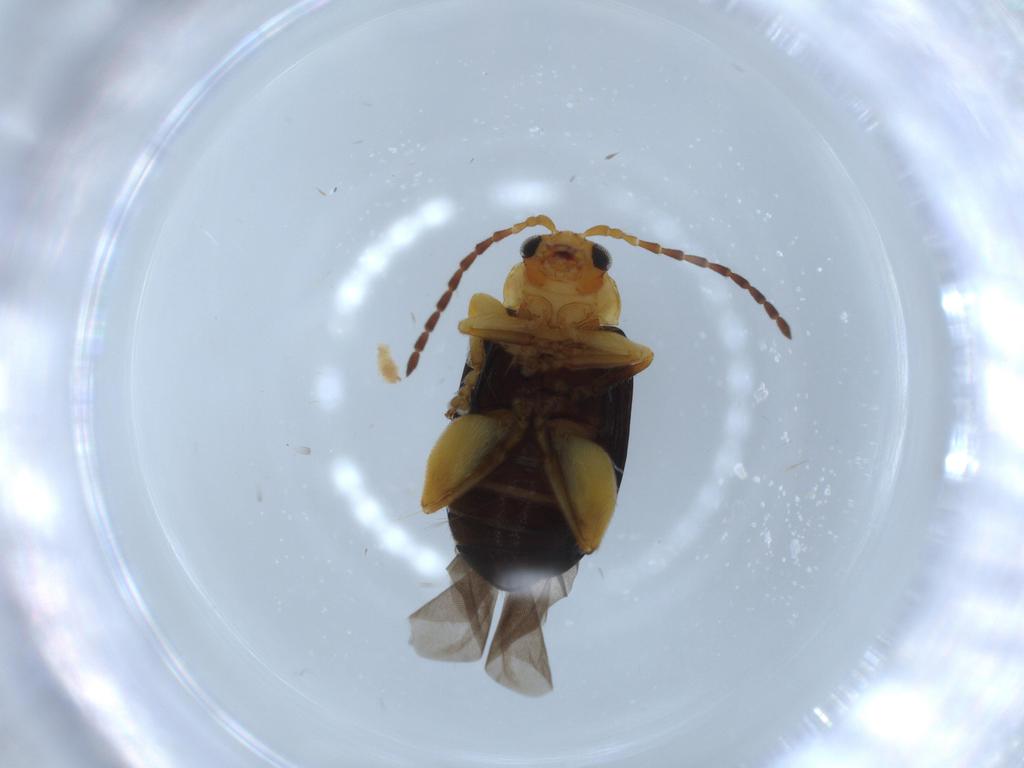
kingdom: Animalia
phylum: Arthropoda
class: Insecta
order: Coleoptera
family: Chrysomelidae
